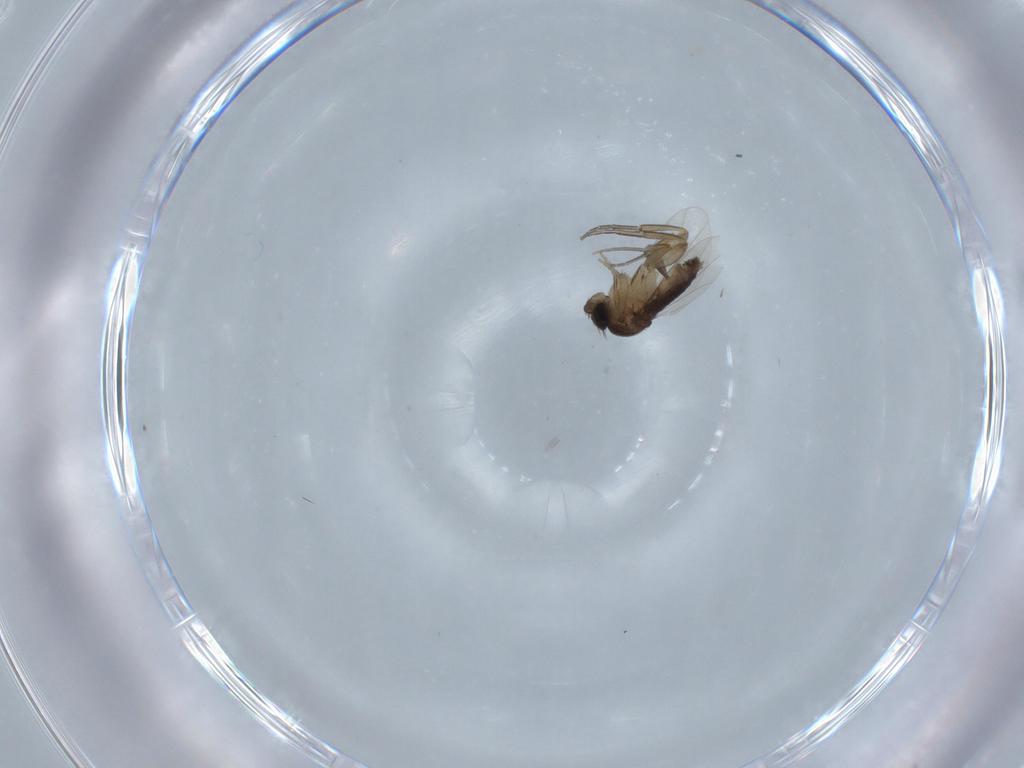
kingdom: Animalia
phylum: Arthropoda
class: Insecta
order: Diptera
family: Phoridae
